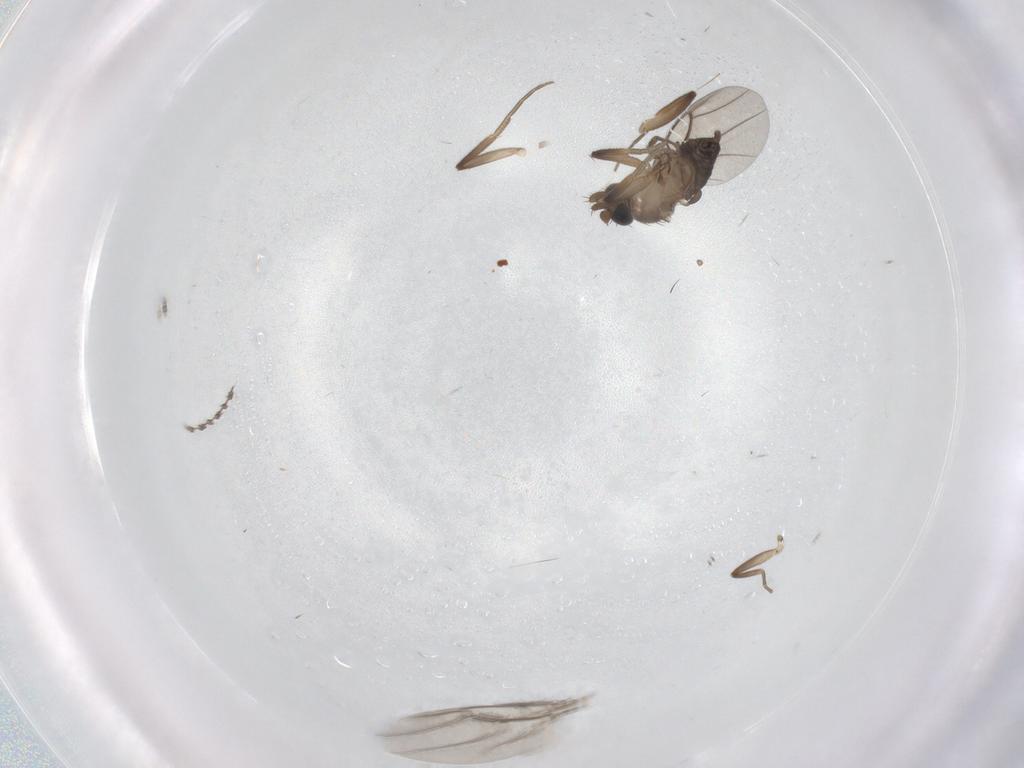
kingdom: Animalia
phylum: Arthropoda
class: Insecta
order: Diptera
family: Phoridae
